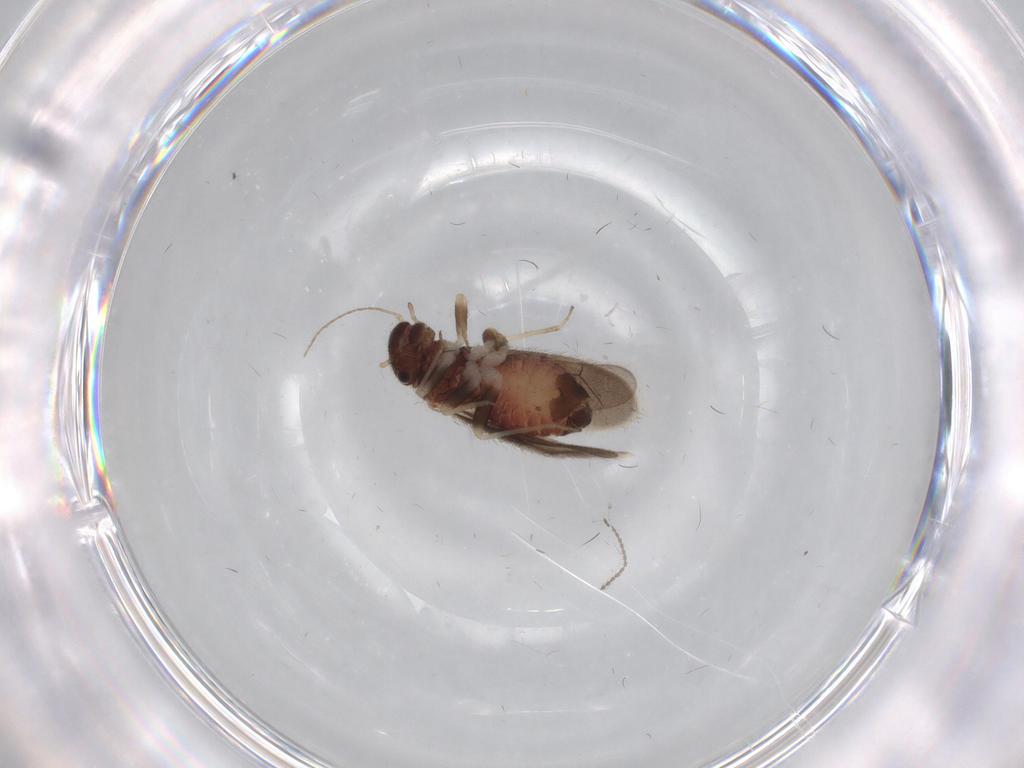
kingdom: Animalia
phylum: Arthropoda
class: Insecta
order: Psocodea
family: Archipsocidae
